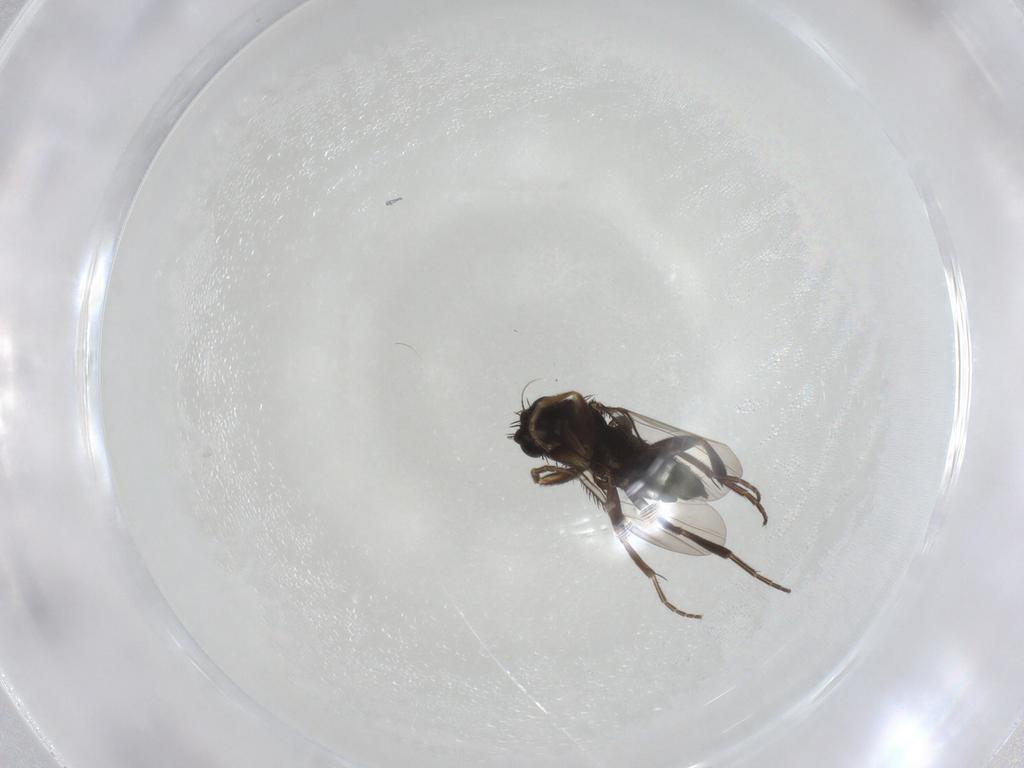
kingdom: Animalia
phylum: Arthropoda
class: Insecta
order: Diptera
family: Phoridae
